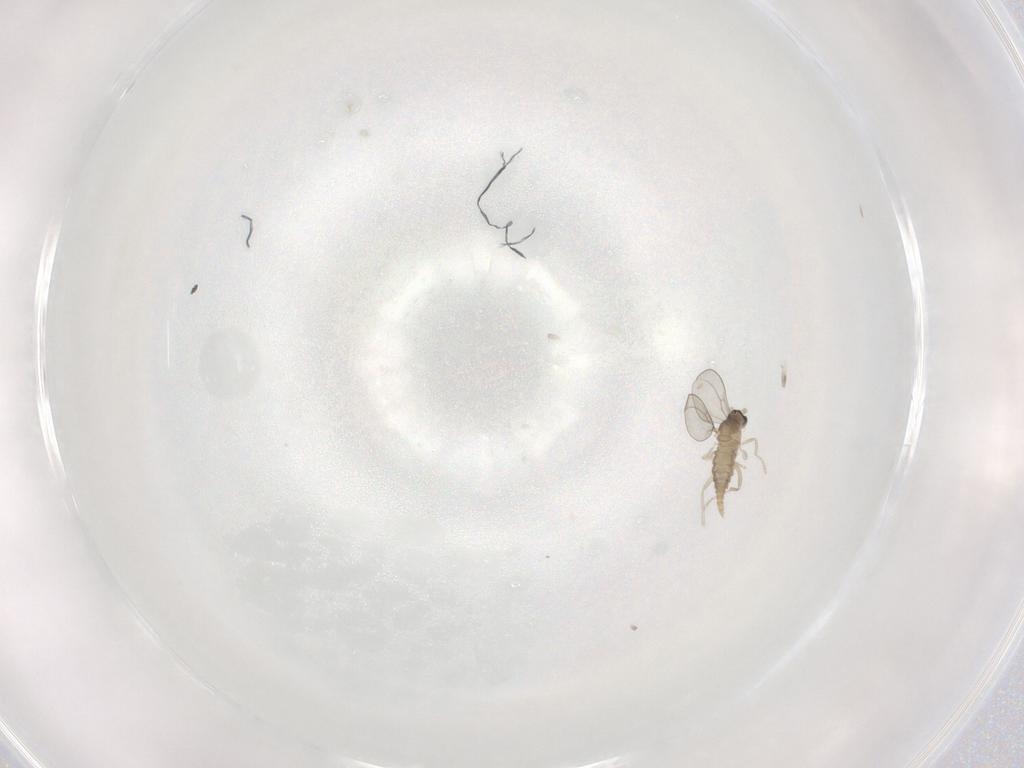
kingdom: Animalia
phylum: Arthropoda
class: Insecta
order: Diptera
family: Cecidomyiidae
